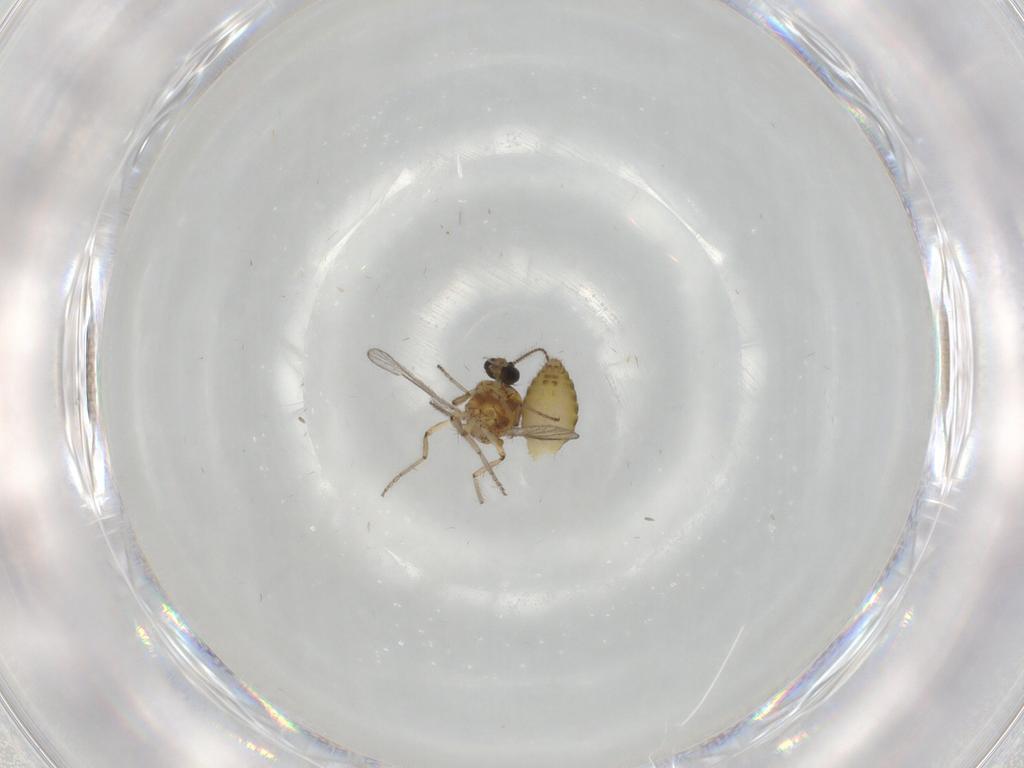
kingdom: Animalia
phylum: Arthropoda
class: Insecta
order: Diptera
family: Ceratopogonidae
